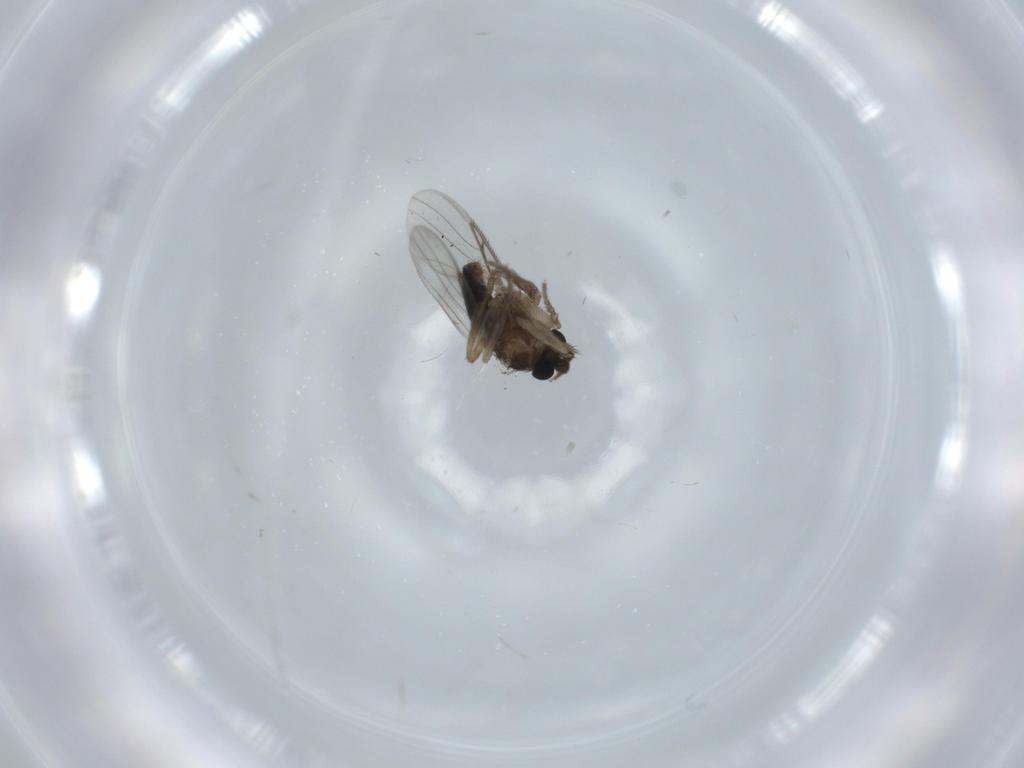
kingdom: Animalia
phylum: Arthropoda
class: Insecta
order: Diptera
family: Phoridae
